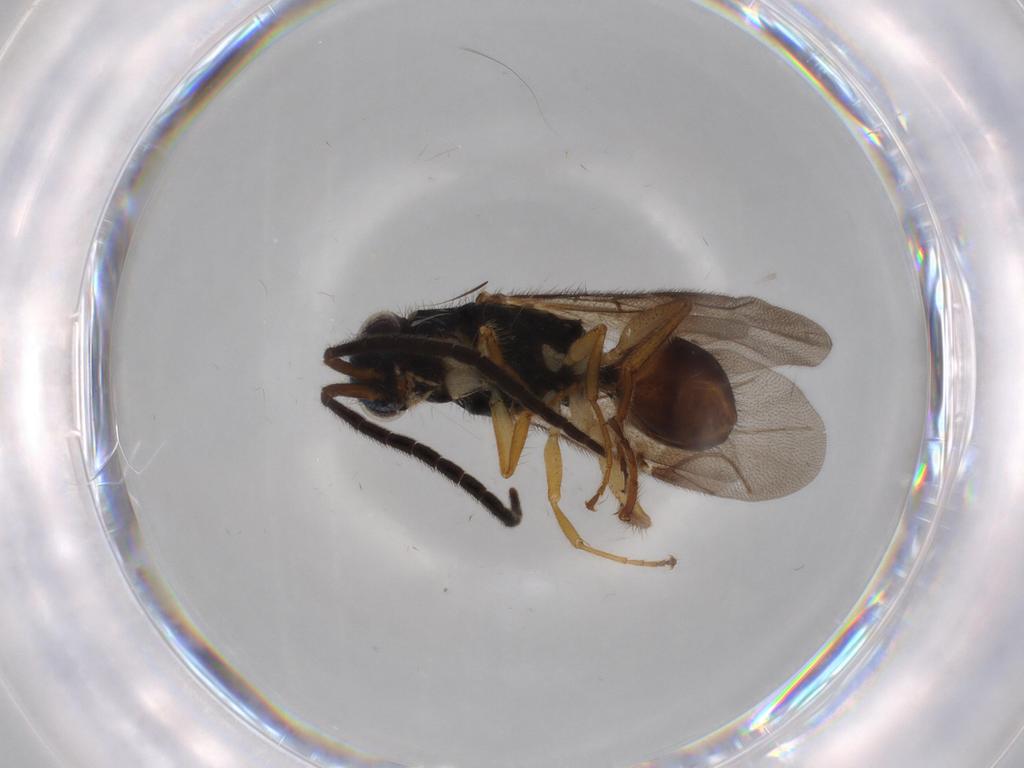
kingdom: Animalia
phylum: Arthropoda
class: Insecta
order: Hymenoptera
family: Chrysididae
